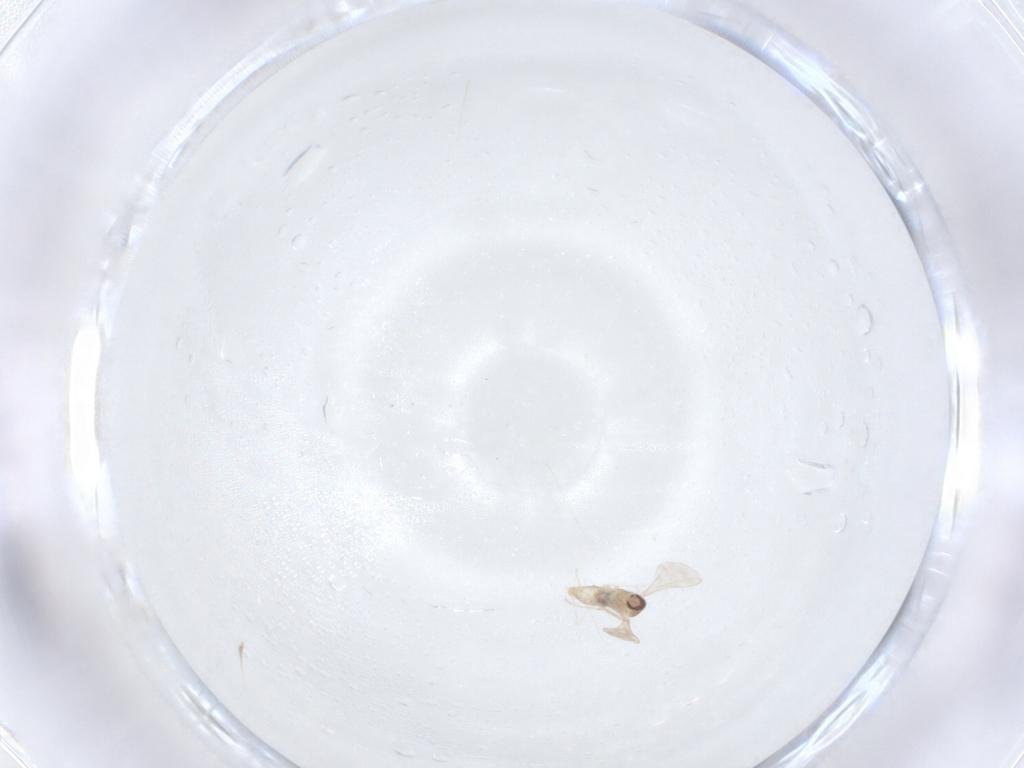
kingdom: Animalia
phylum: Arthropoda
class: Insecta
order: Diptera
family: Cecidomyiidae
